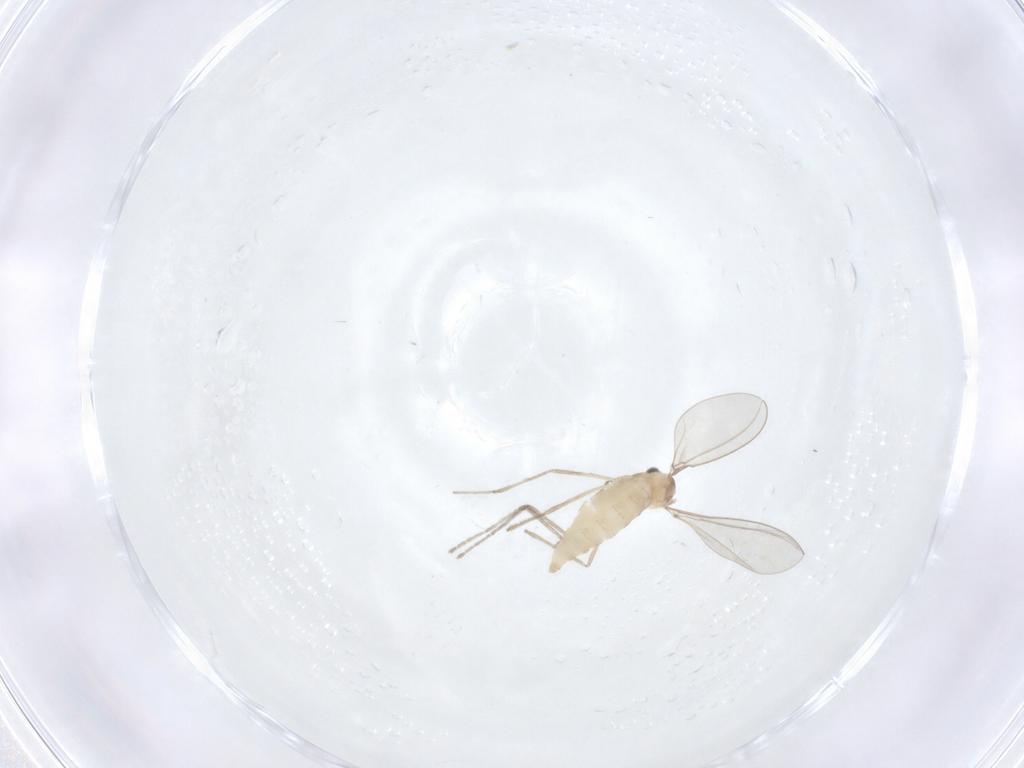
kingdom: Animalia
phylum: Arthropoda
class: Insecta
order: Diptera
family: Cecidomyiidae
